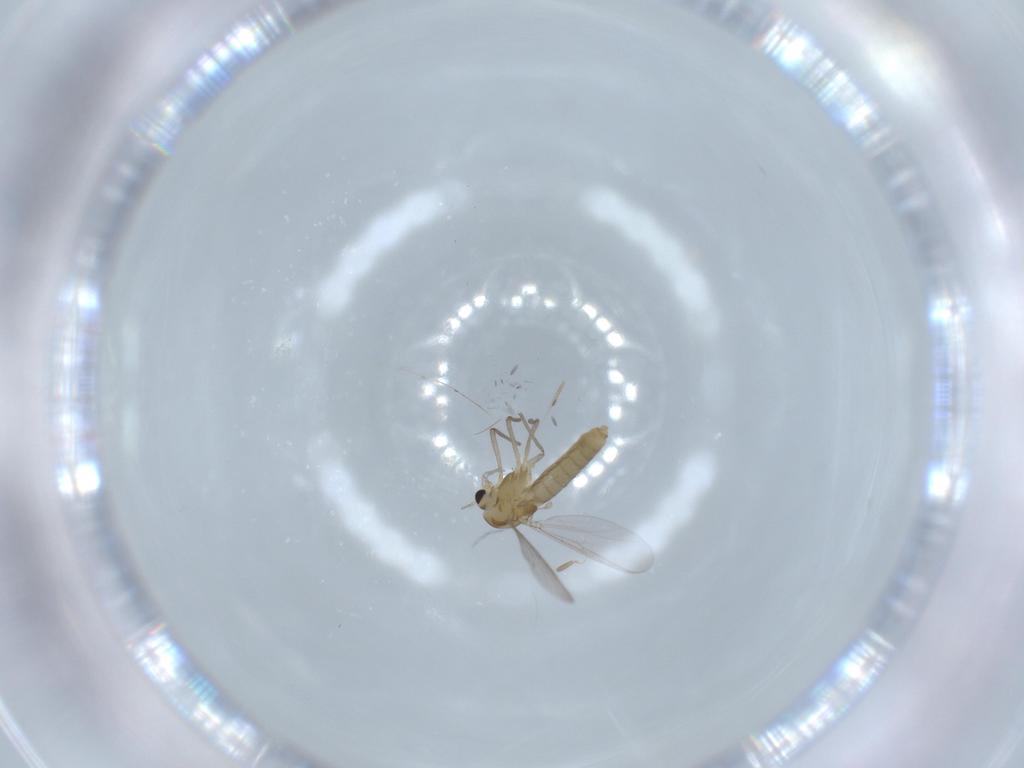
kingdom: Animalia
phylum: Arthropoda
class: Insecta
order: Diptera
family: Chironomidae
